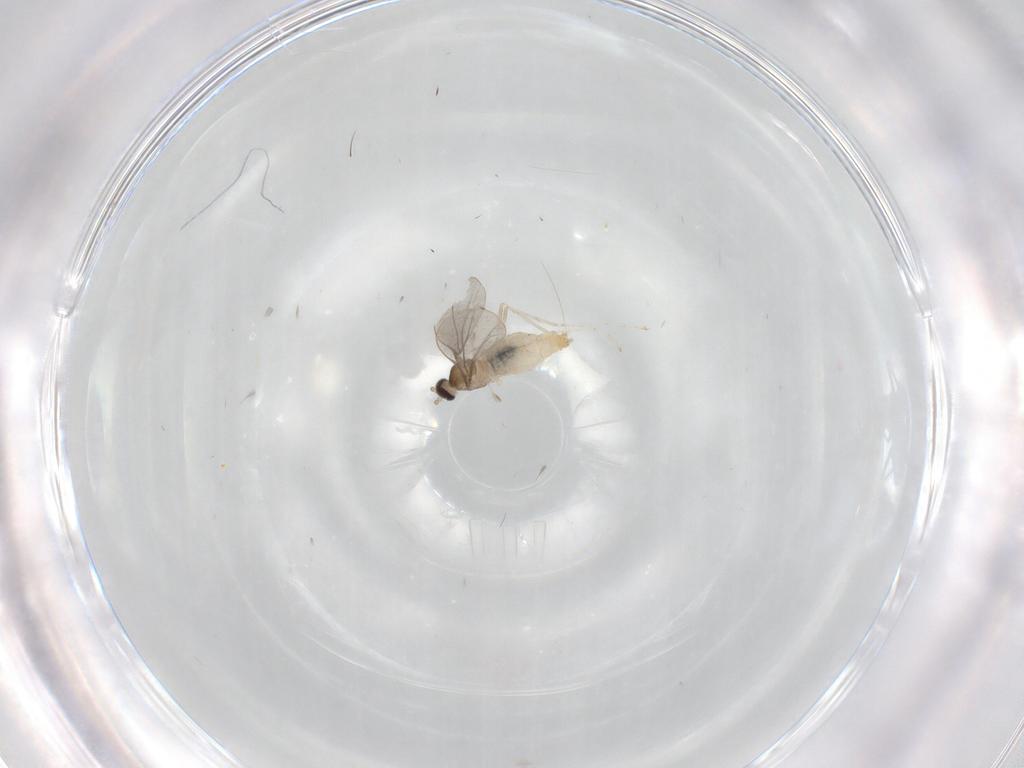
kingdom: Animalia
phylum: Arthropoda
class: Insecta
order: Diptera
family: Cecidomyiidae
